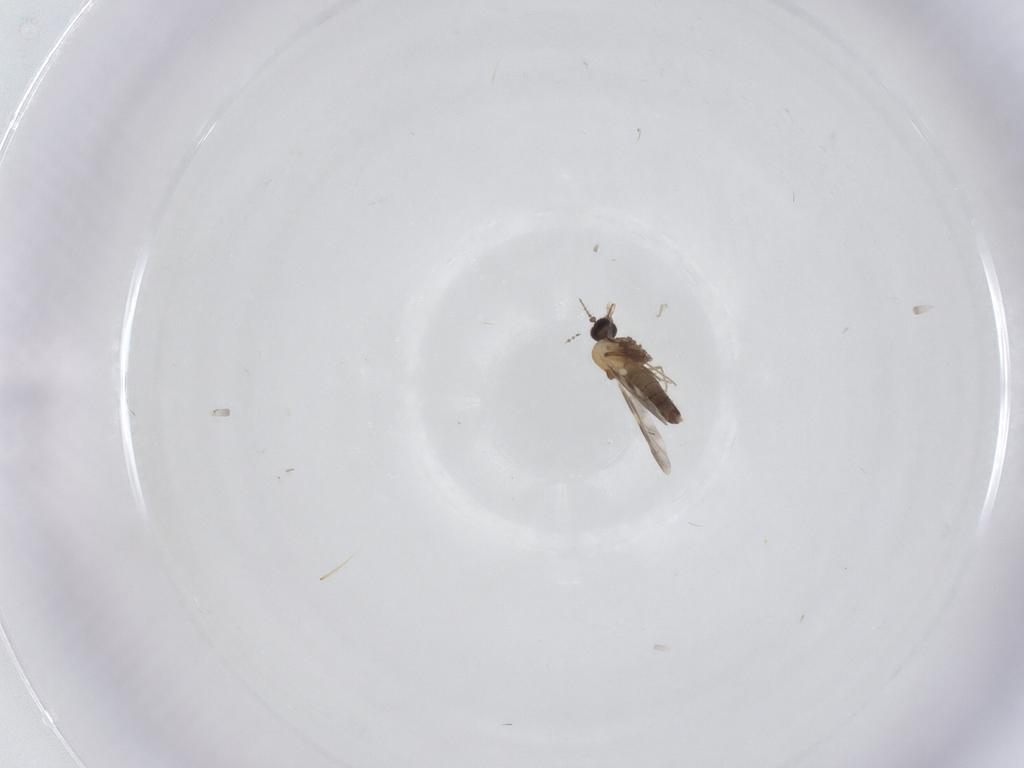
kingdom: Animalia
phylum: Arthropoda
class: Insecta
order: Diptera
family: Ceratopogonidae
